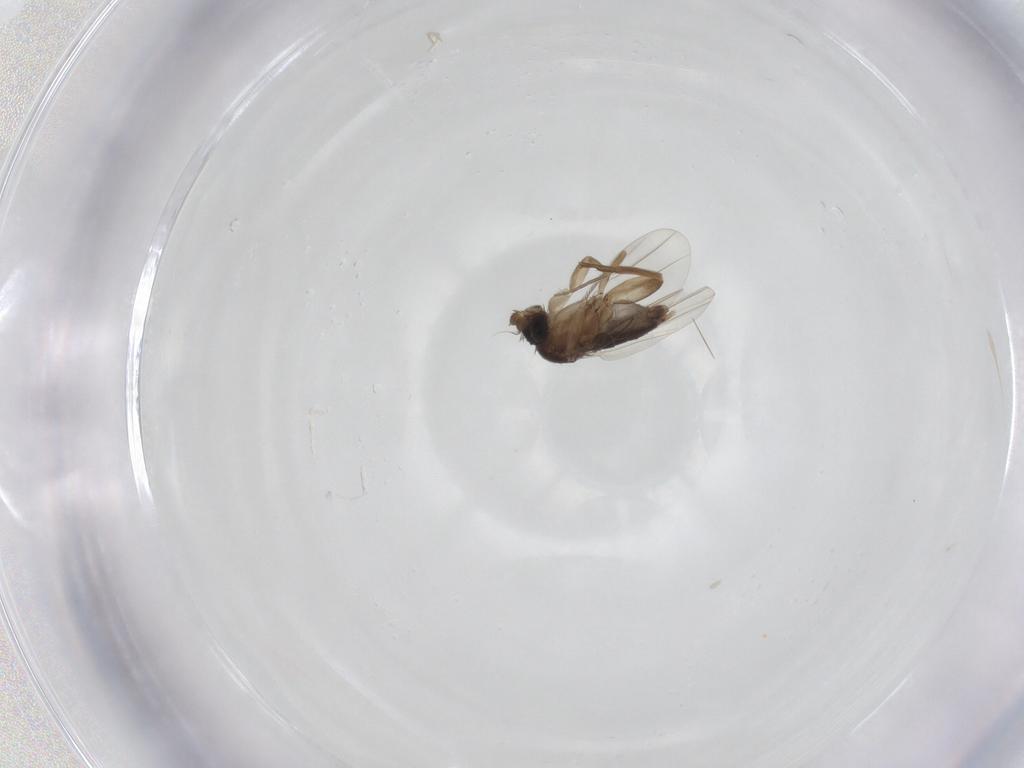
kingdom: Animalia
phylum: Arthropoda
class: Insecta
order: Diptera
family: Phoridae
